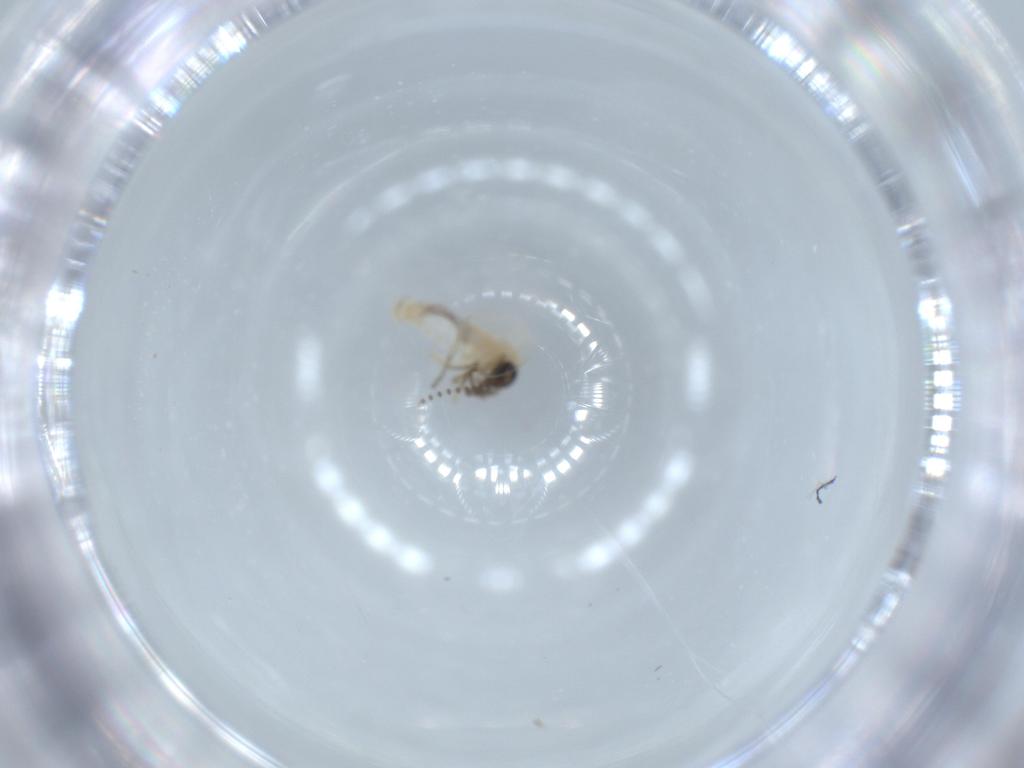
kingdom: Animalia
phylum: Arthropoda
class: Insecta
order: Diptera
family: Psychodidae
